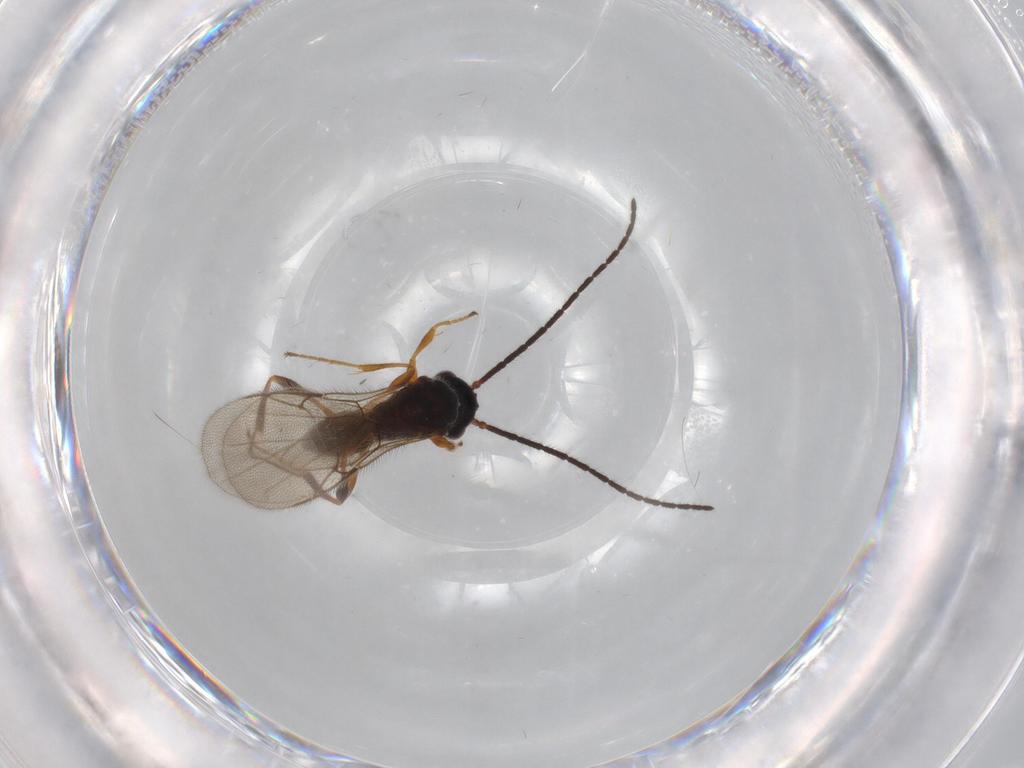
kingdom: Animalia
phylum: Arthropoda
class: Insecta
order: Hymenoptera
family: Diapriidae
